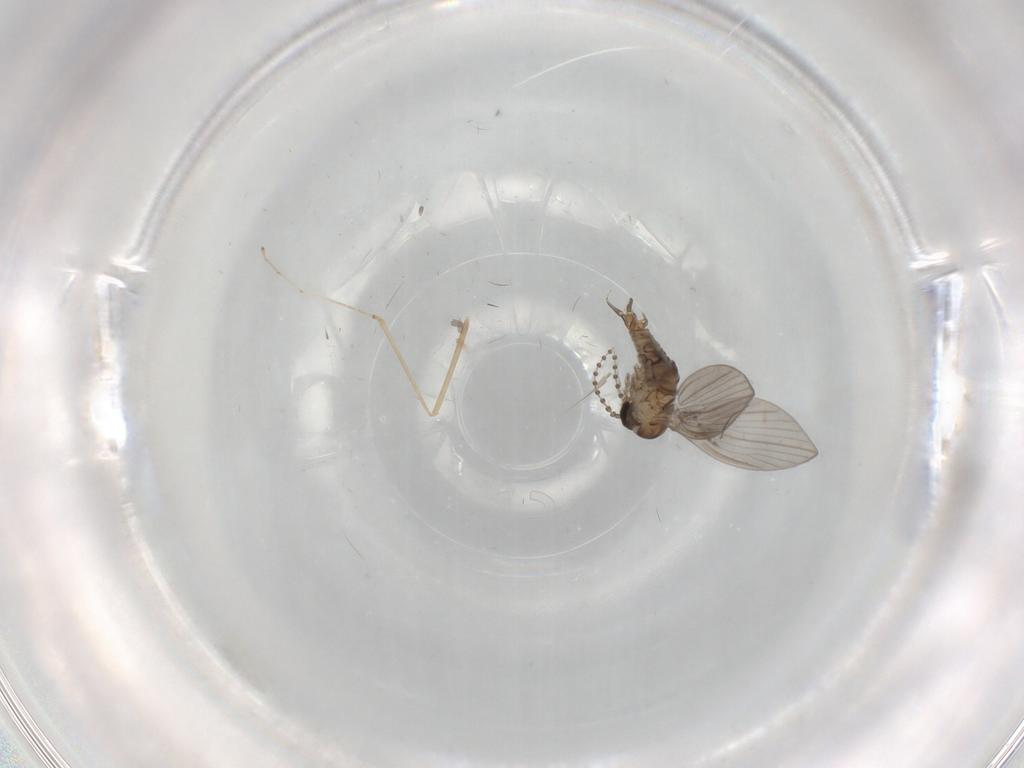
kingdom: Animalia
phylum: Arthropoda
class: Insecta
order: Diptera
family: Psychodidae
